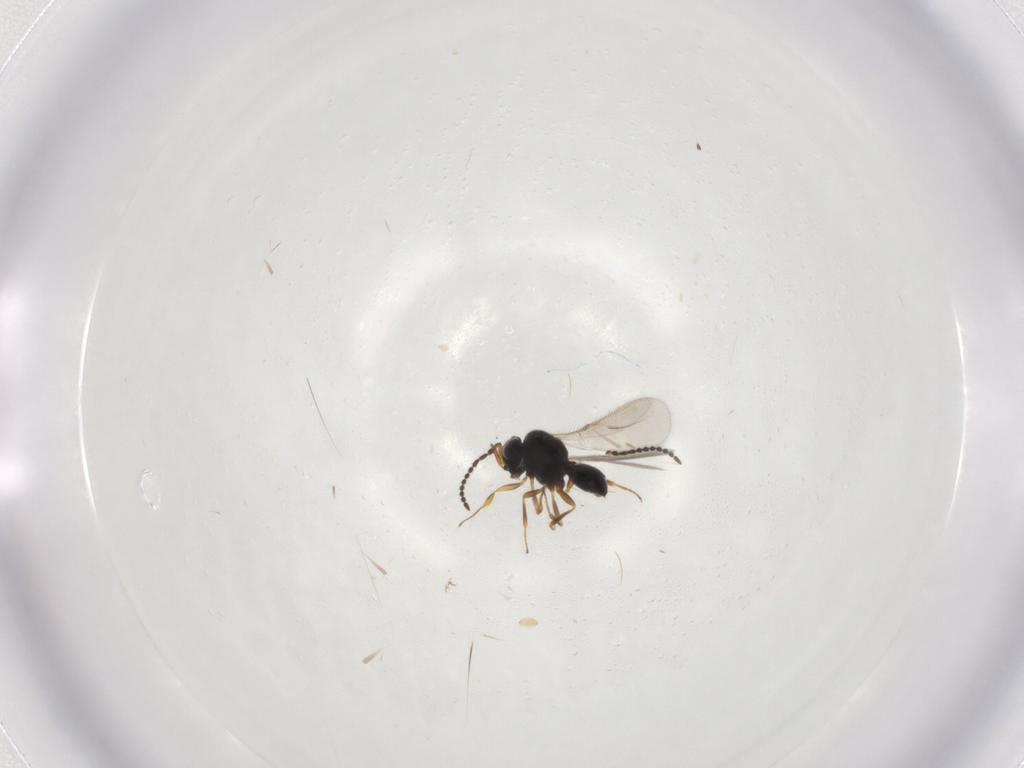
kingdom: Animalia
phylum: Arthropoda
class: Insecta
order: Hymenoptera
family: Scelionidae
